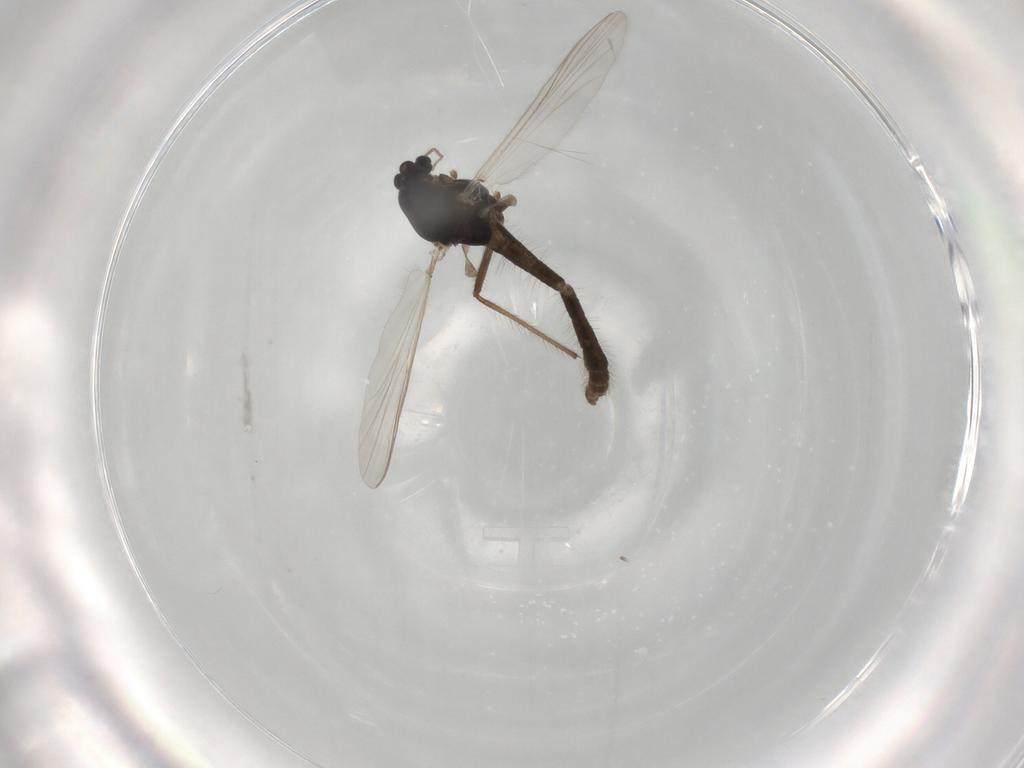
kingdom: Animalia
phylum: Arthropoda
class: Insecta
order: Diptera
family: Chironomidae
